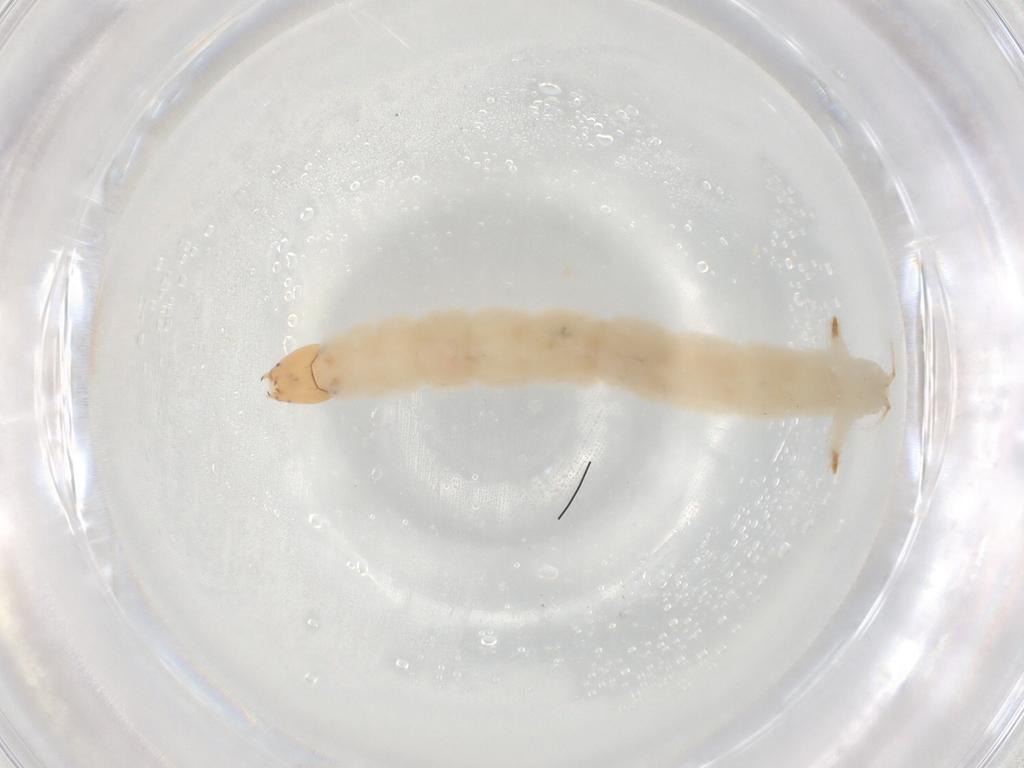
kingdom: Animalia
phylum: Arthropoda
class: Insecta
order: Diptera
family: Chironomidae
